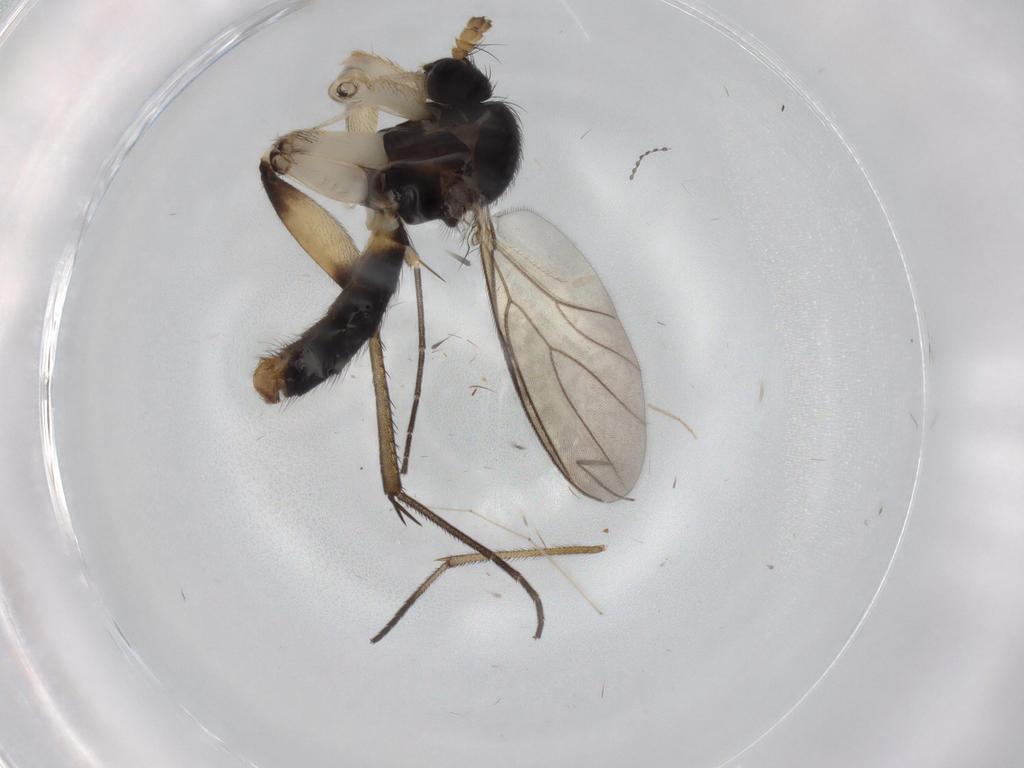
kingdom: Animalia
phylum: Arthropoda
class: Insecta
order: Diptera
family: Mycetophilidae
